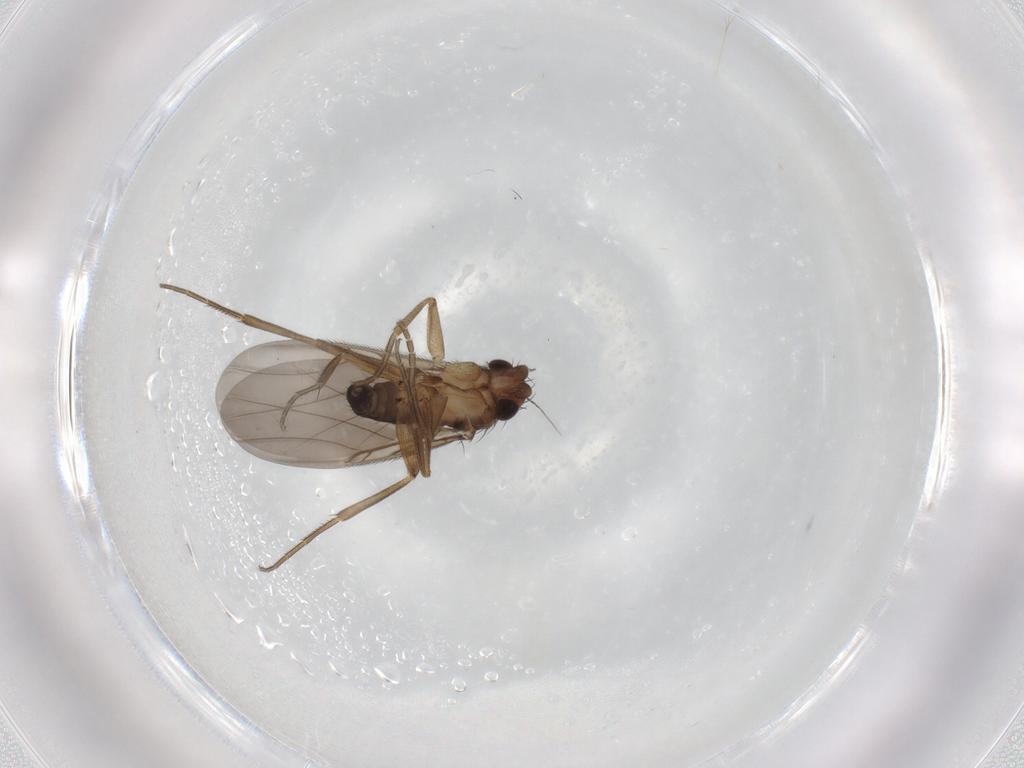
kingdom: Animalia
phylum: Arthropoda
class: Insecta
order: Diptera
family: Phoridae
